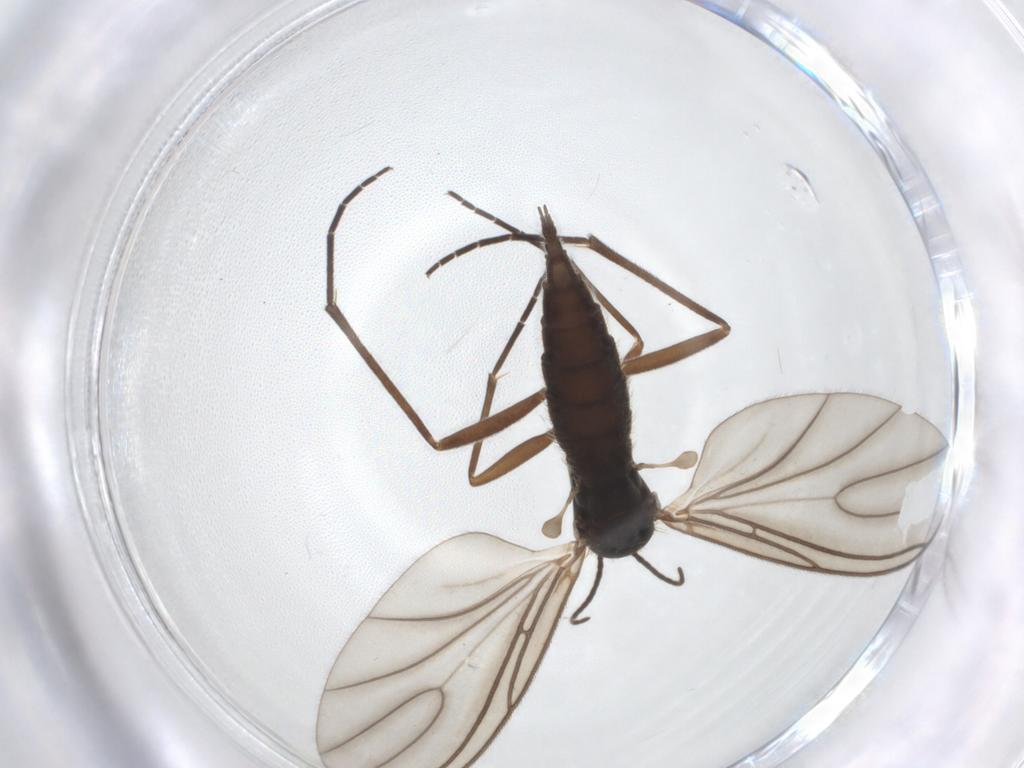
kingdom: Animalia
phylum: Arthropoda
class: Insecta
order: Diptera
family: Sciaridae
